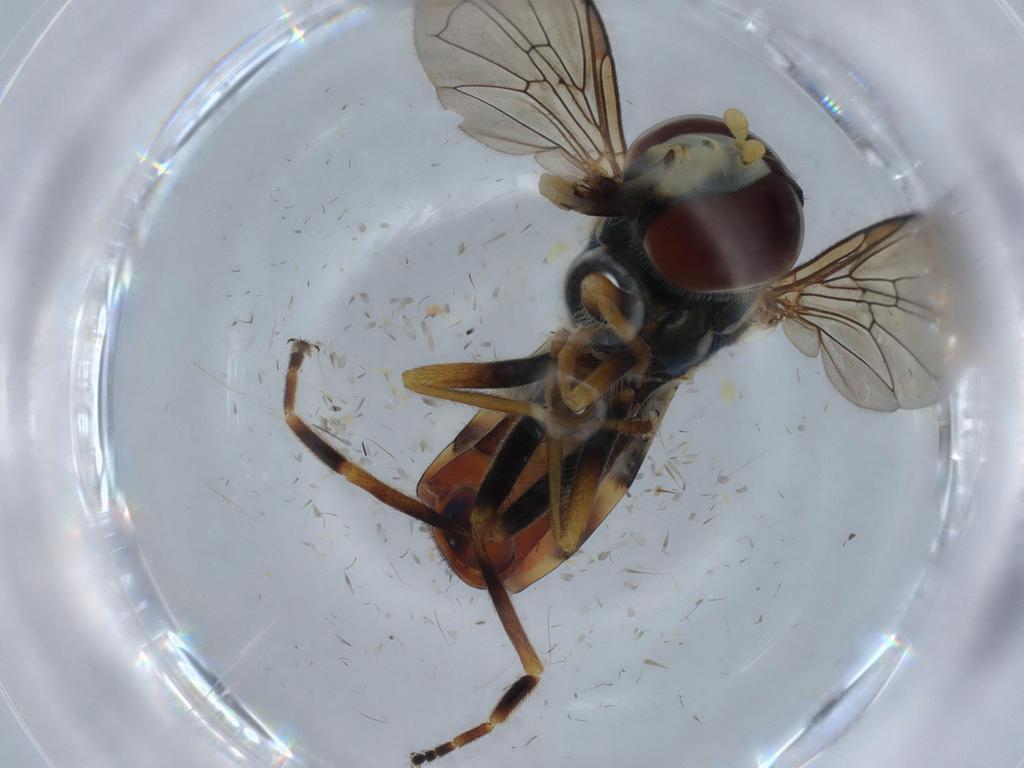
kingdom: Animalia
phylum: Arthropoda
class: Insecta
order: Diptera
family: Syrphidae
